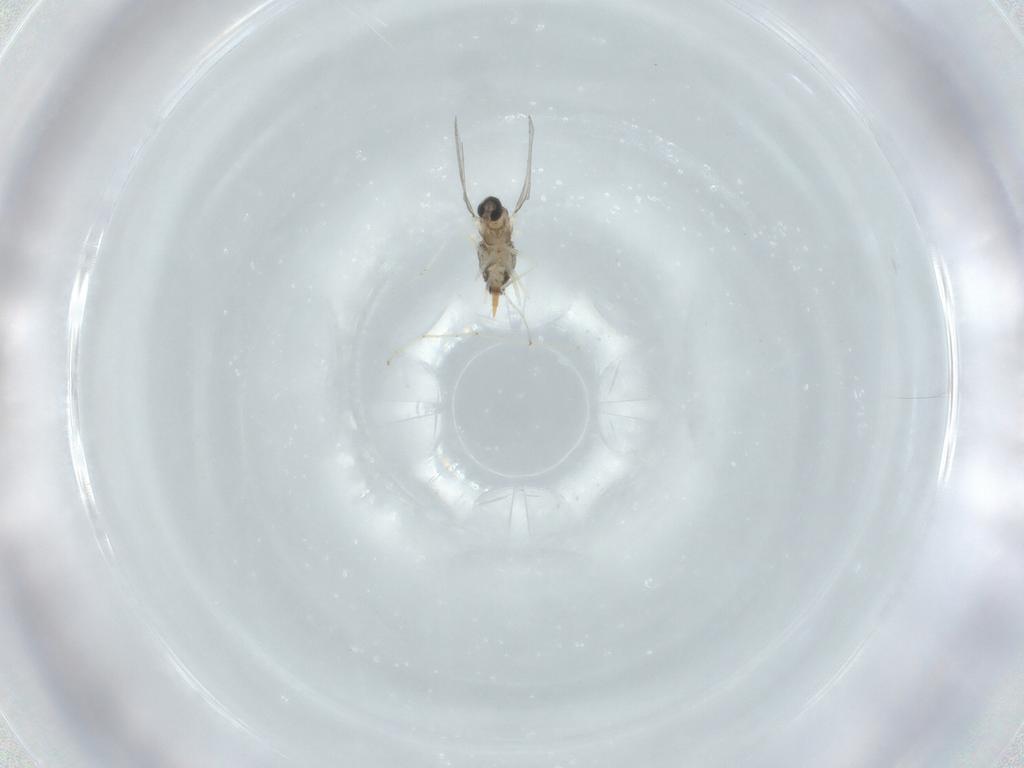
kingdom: Animalia
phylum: Arthropoda
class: Insecta
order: Diptera
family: Cecidomyiidae
